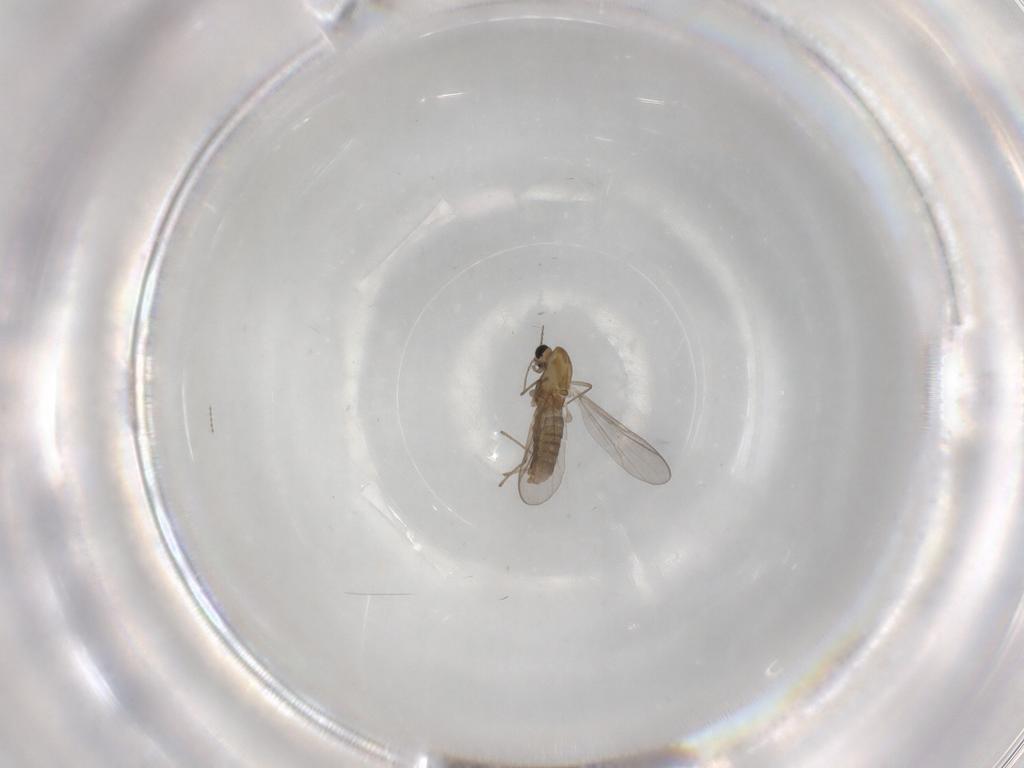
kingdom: Animalia
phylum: Arthropoda
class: Insecta
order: Diptera
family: Chironomidae
